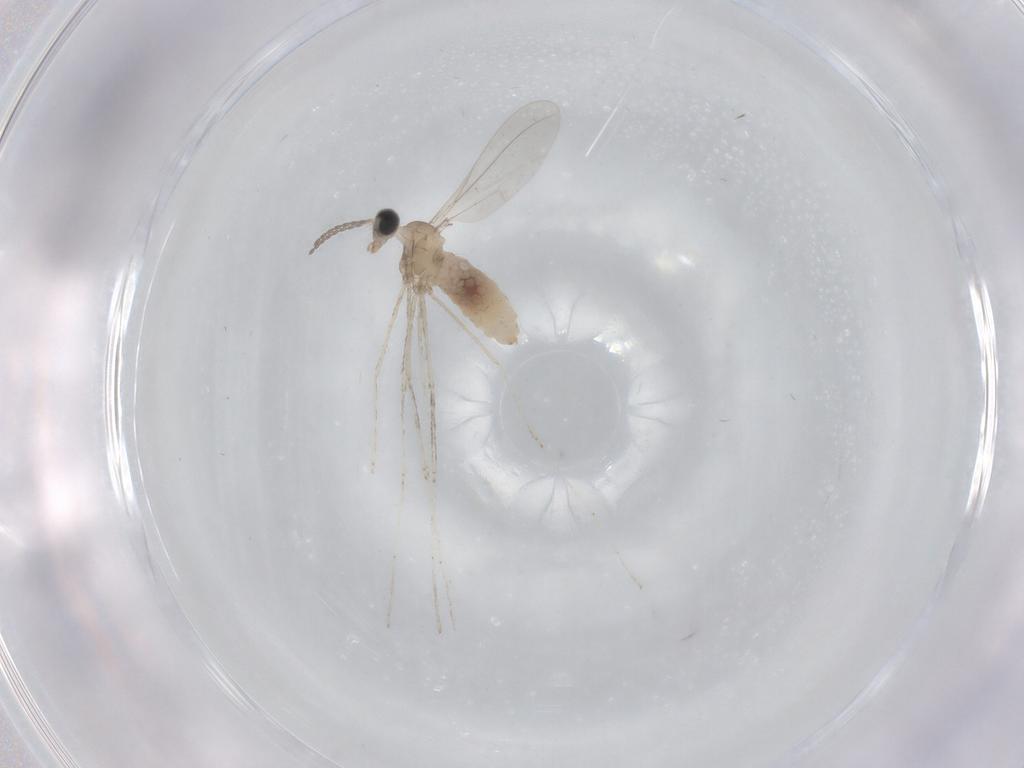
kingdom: Animalia
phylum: Arthropoda
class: Insecta
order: Diptera
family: Cecidomyiidae
